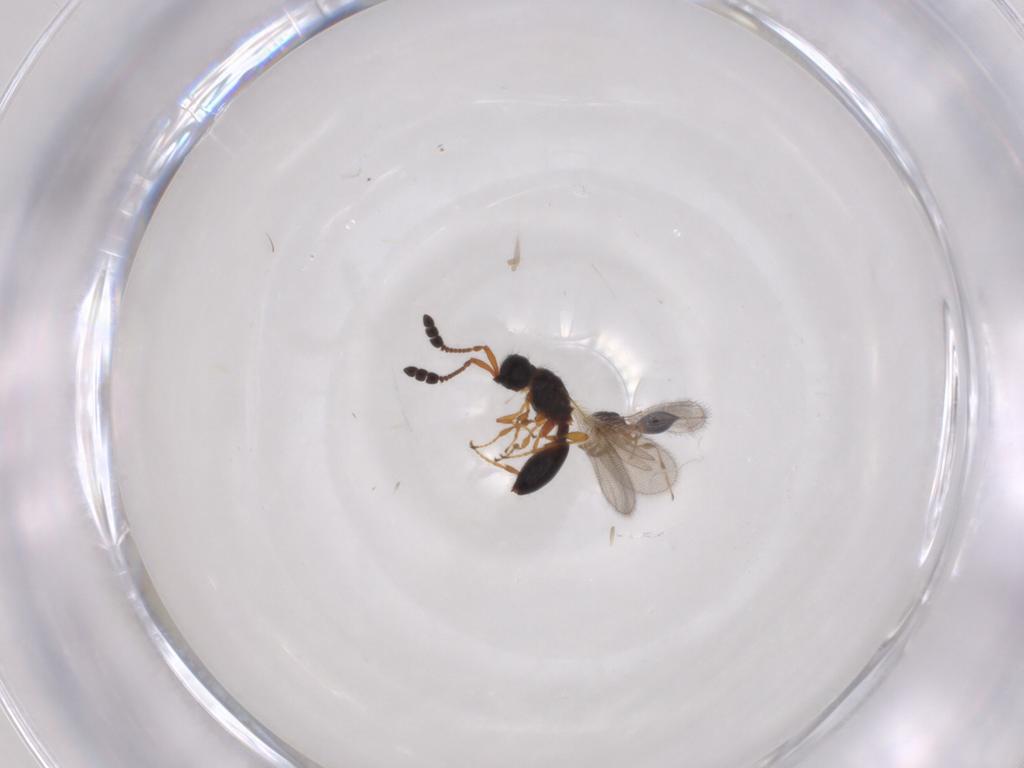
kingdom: Animalia
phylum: Arthropoda
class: Insecta
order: Hymenoptera
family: Diapriidae
